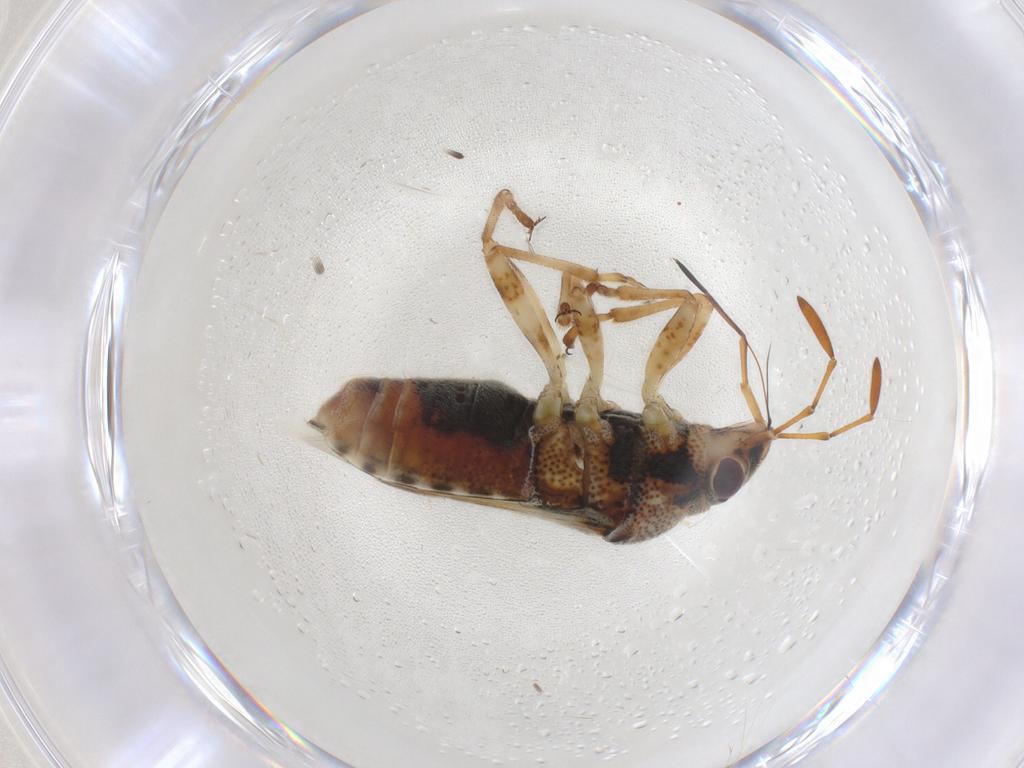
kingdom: Animalia
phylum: Arthropoda
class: Insecta
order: Hemiptera
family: Lygaeidae
